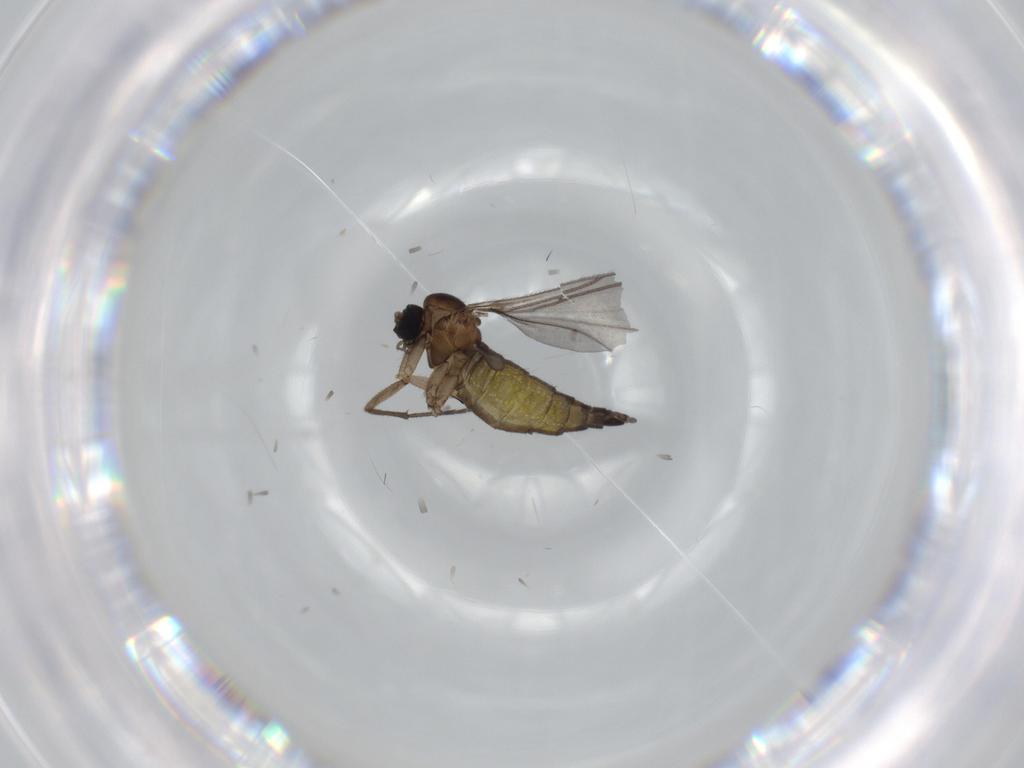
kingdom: Animalia
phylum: Arthropoda
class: Insecta
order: Diptera
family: Sciaridae
